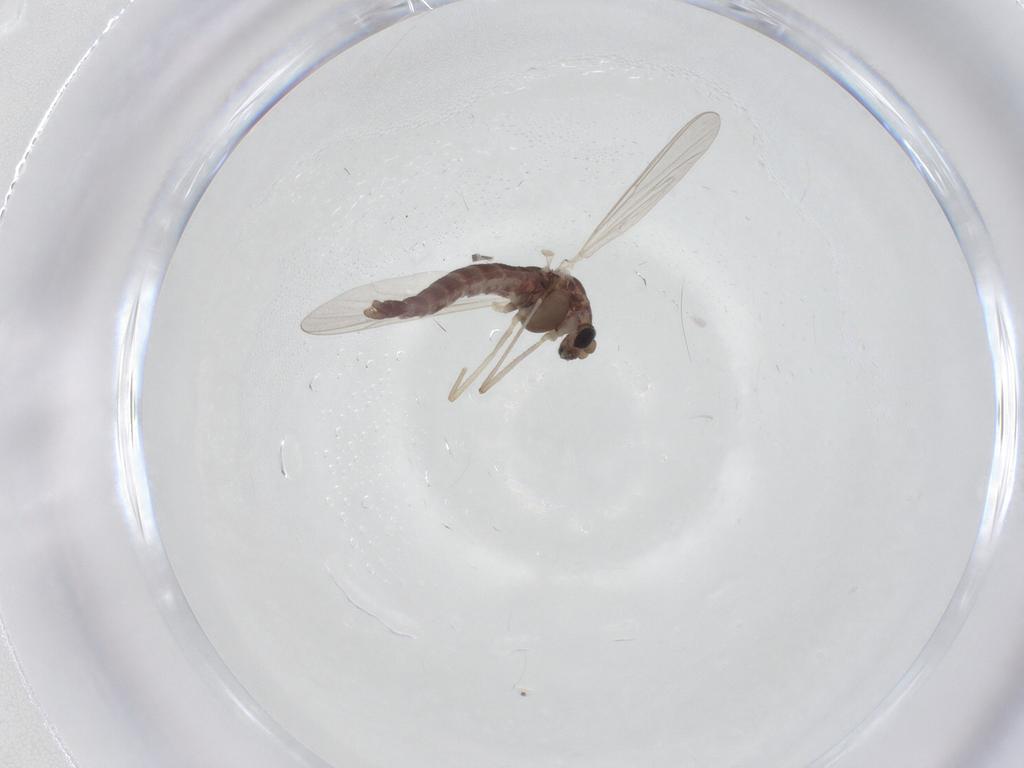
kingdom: Animalia
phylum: Arthropoda
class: Insecta
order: Diptera
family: Chironomidae
